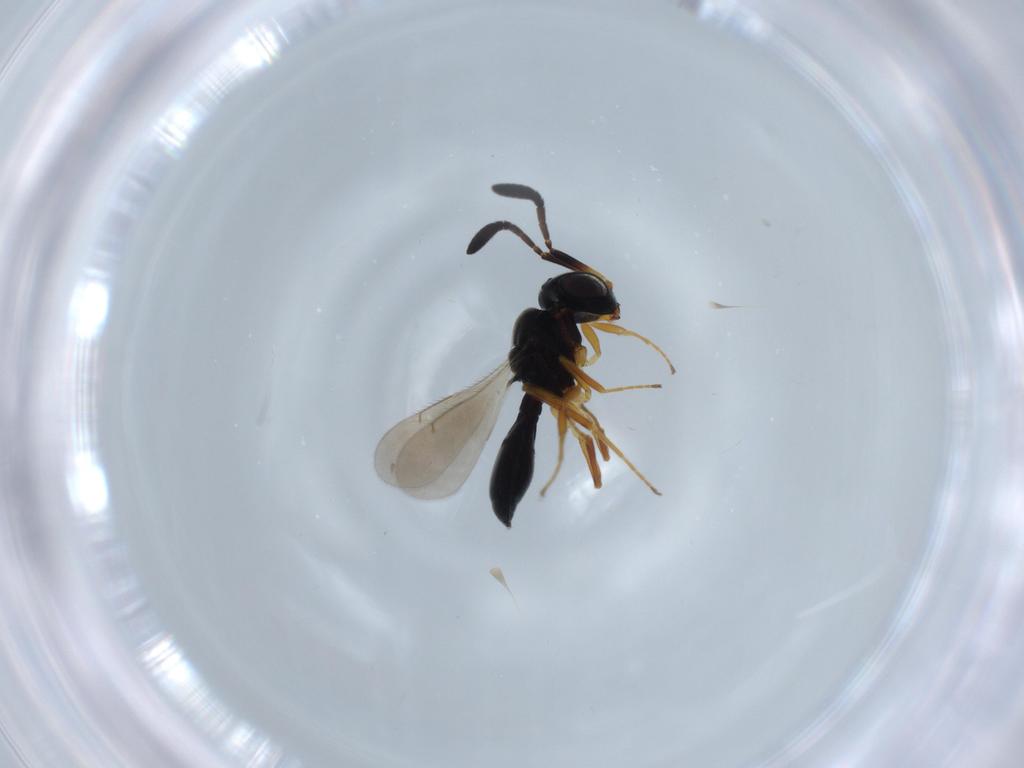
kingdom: Animalia
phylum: Arthropoda
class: Insecta
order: Hymenoptera
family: Scelionidae
